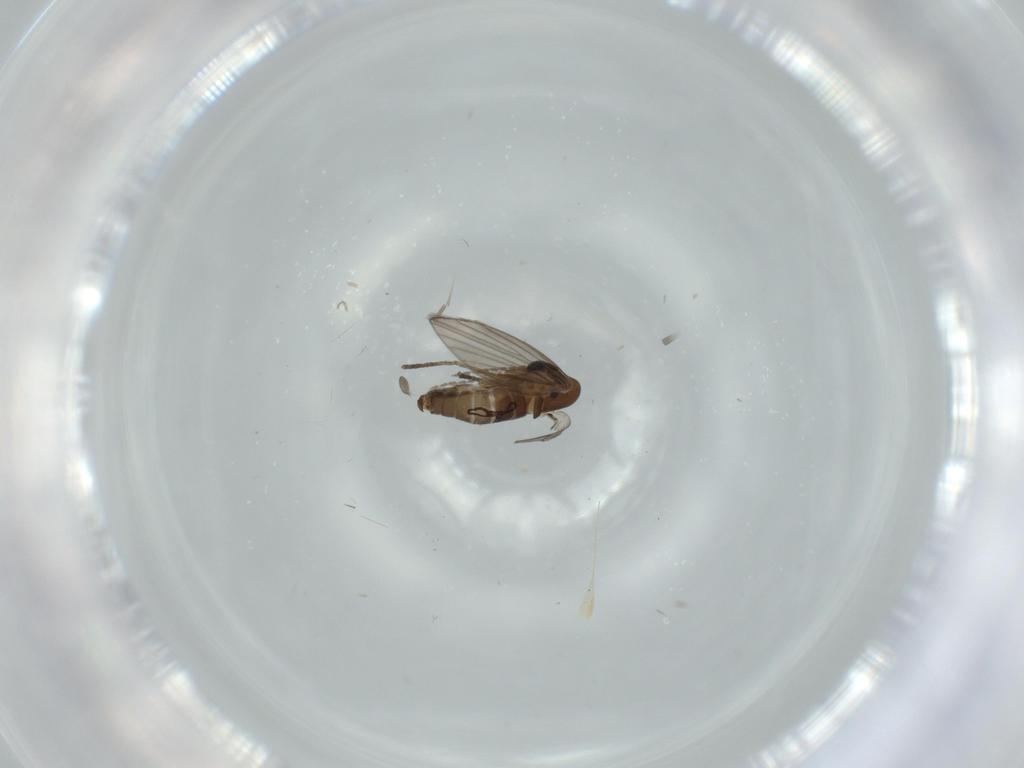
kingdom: Animalia
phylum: Arthropoda
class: Insecta
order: Diptera
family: Psychodidae
